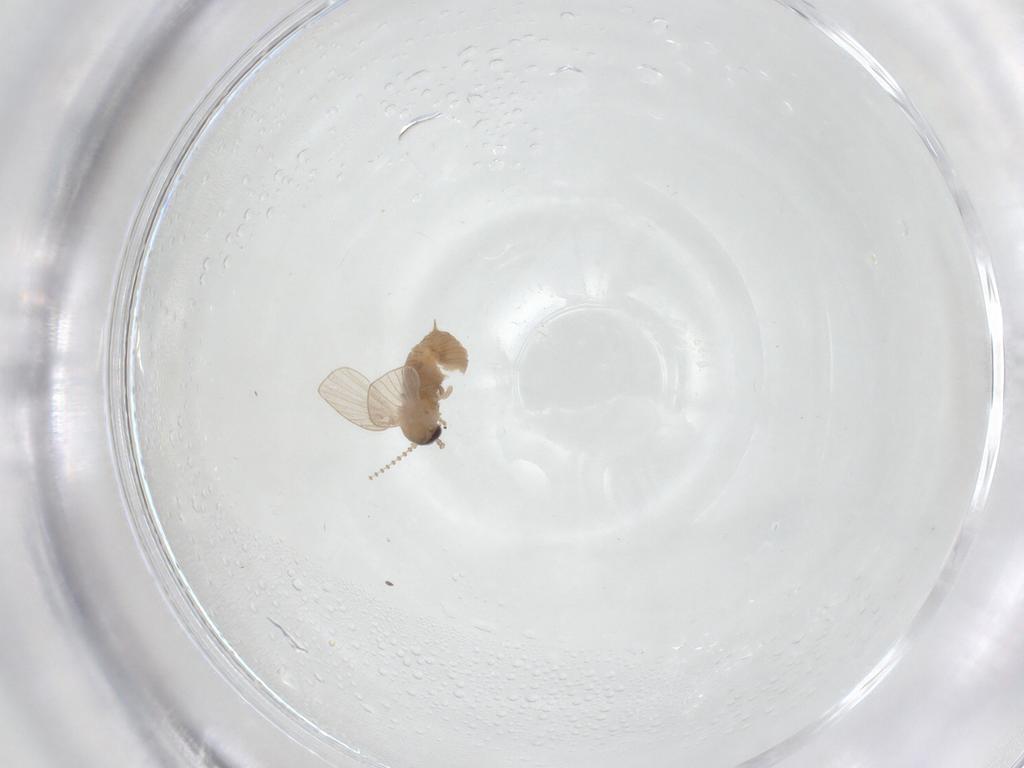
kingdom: Animalia
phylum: Arthropoda
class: Insecta
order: Diptera
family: Psychodidae
